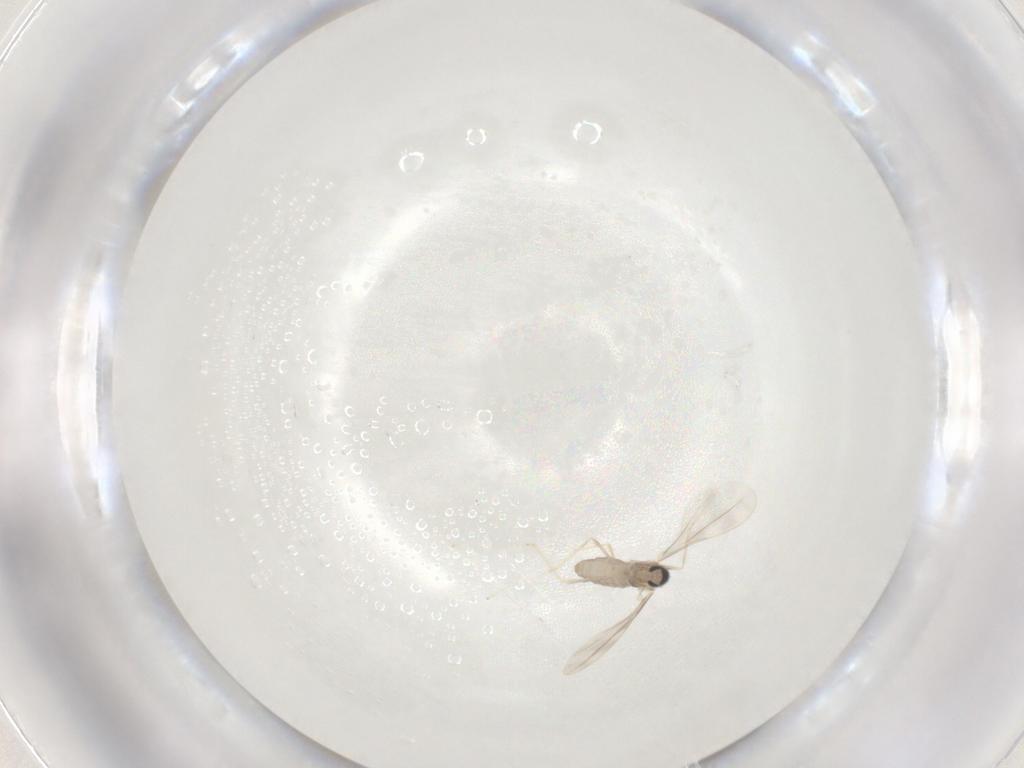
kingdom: Animalia
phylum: Arthropoda
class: Insecta
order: Diptera
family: Cecidomyiidae
